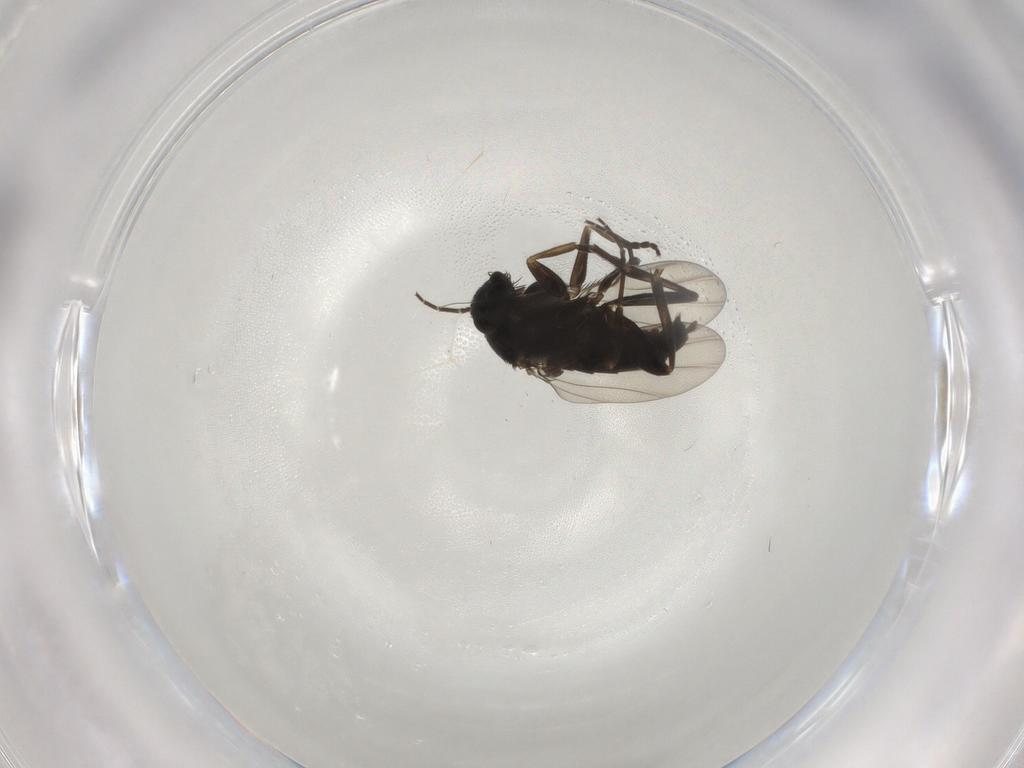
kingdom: Animalia
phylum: Arthropoda
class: Insecta
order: Diptera
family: Phoridae
